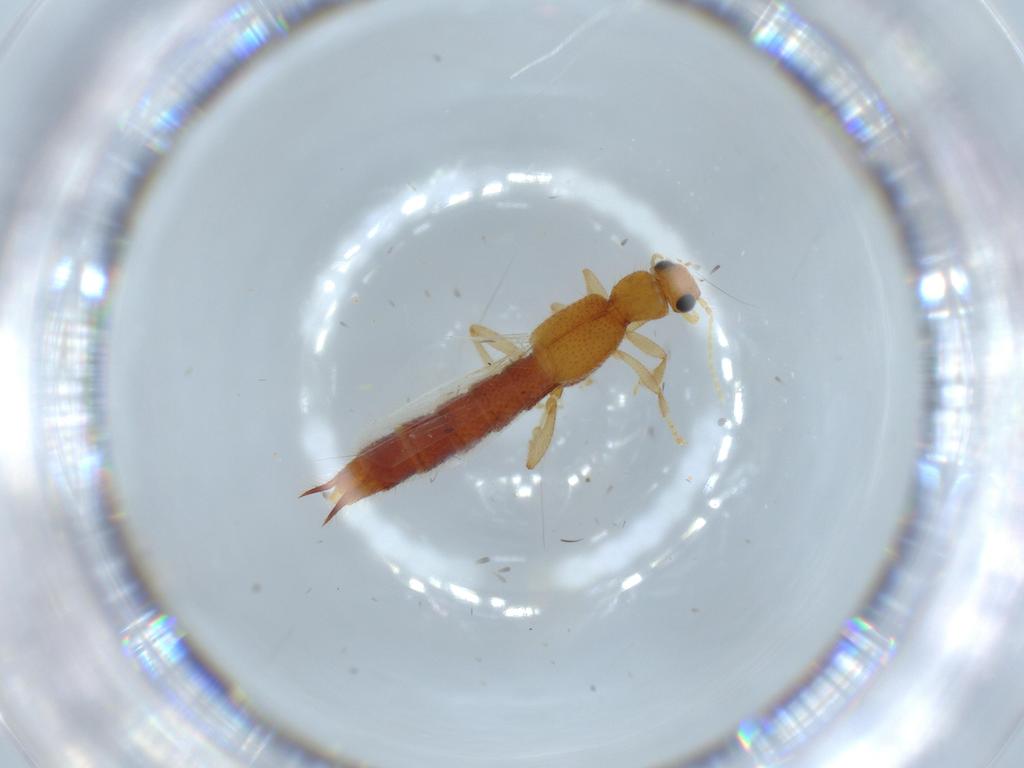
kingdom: Animalia
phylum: Arthropoda
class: Insecta
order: Coleoptera
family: Staphylinidae
